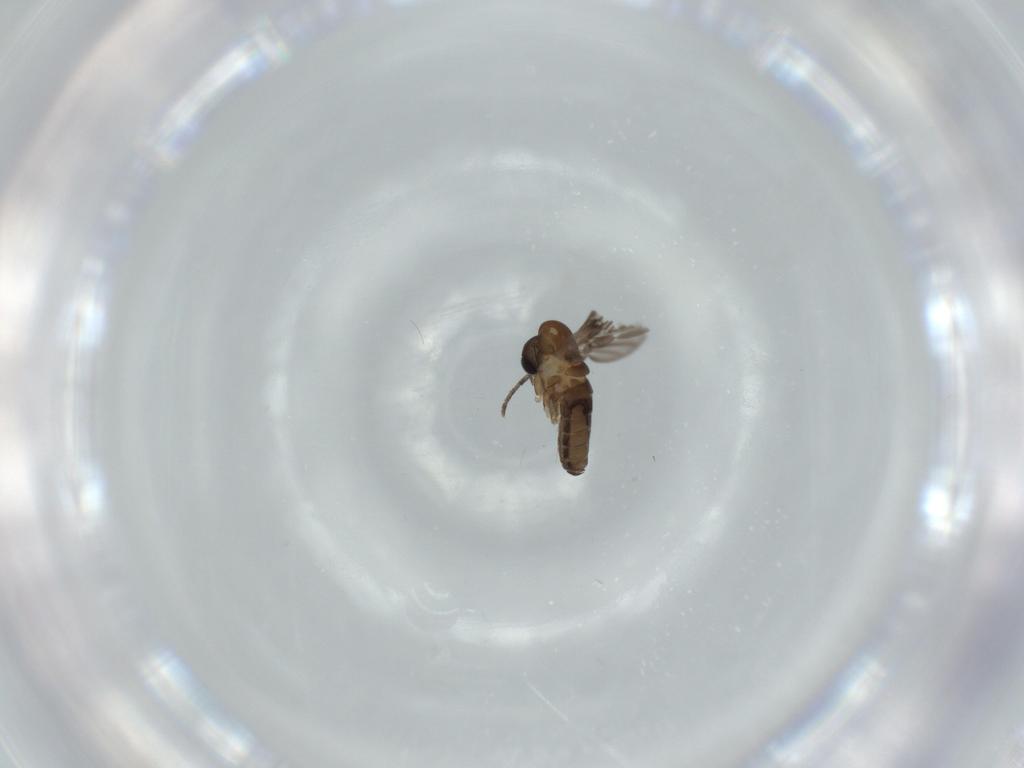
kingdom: Animalia
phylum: Arthropoda
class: Insecta
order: Diptera
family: Psychodidae
